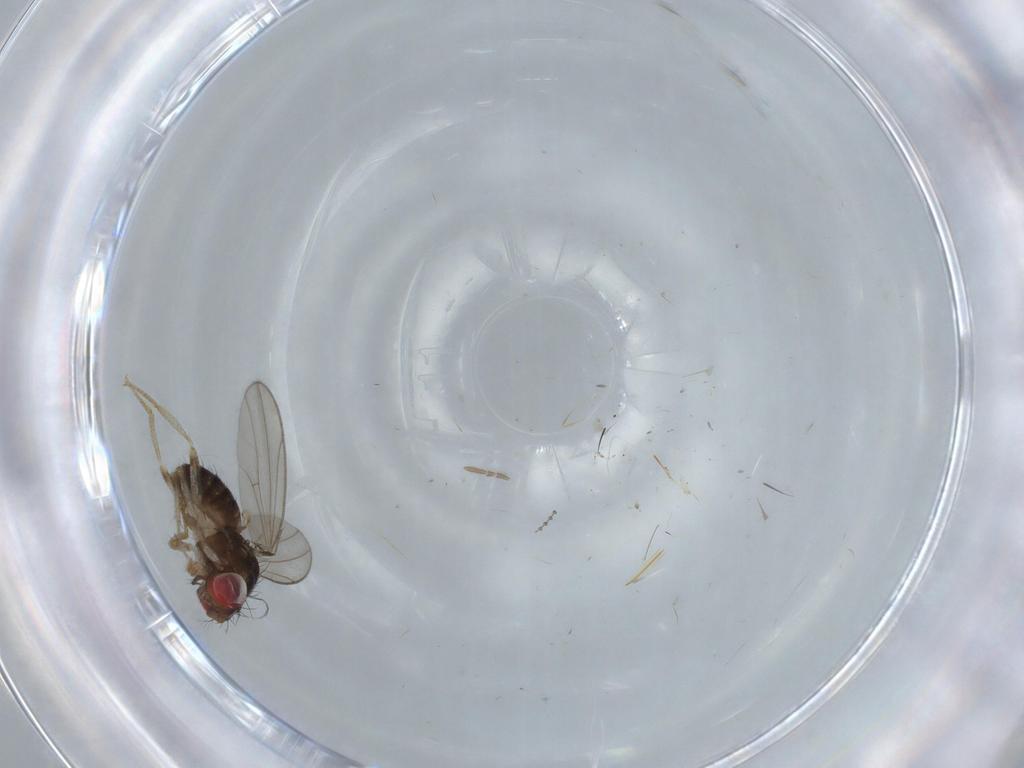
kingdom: Animalia
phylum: Arthropoda
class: Insecta
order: Diptera
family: Drosophilidae
